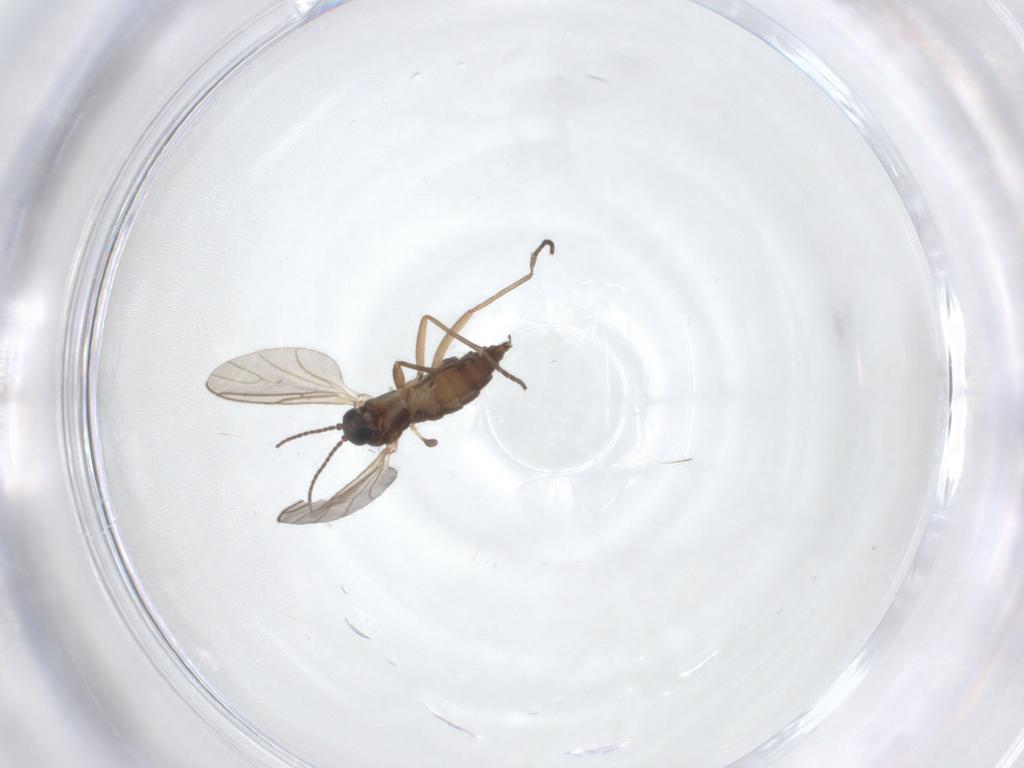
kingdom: Animalia
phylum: Arthropoda
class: Insecta
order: Diptera
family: Sciaridae
